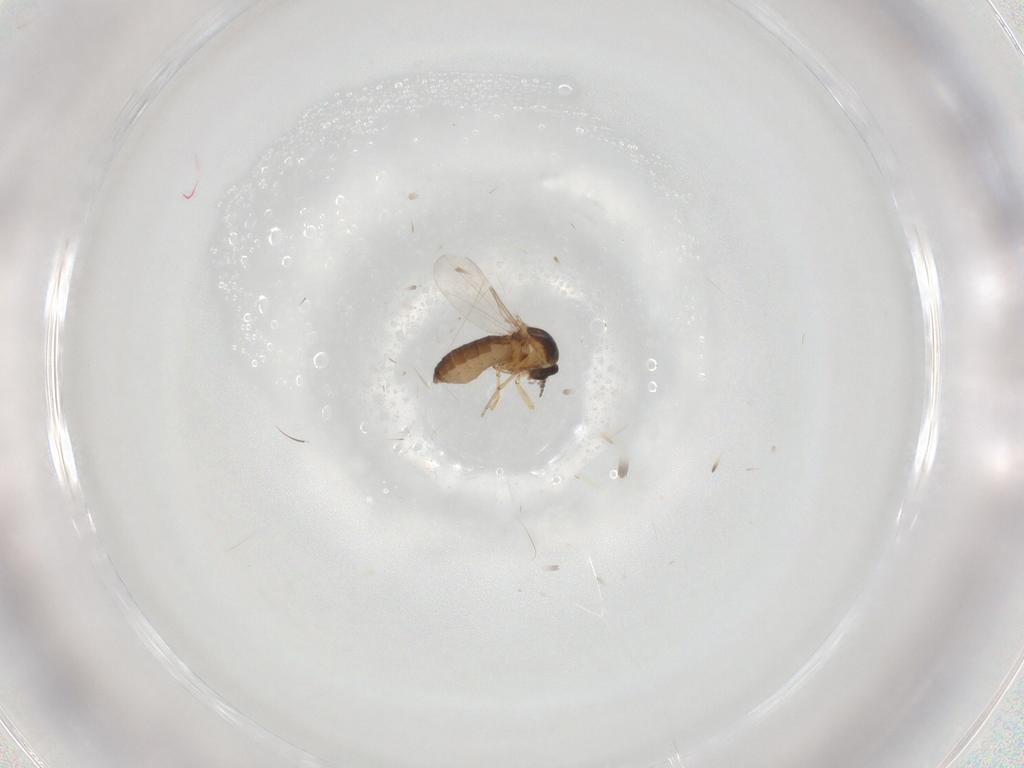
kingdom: Animalia
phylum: Arthropoda
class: Insecta
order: Diptera
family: Ceratopogonidae
